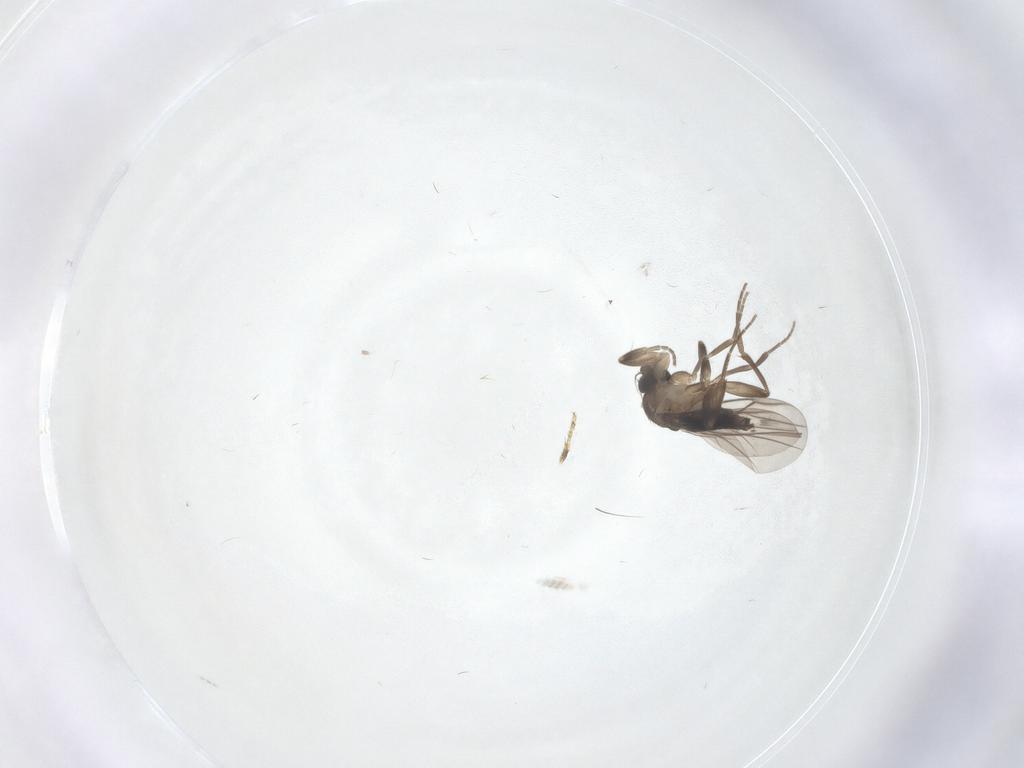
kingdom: Animalia
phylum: Arthropoda
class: Insecta
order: Diptera
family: Phoridae
